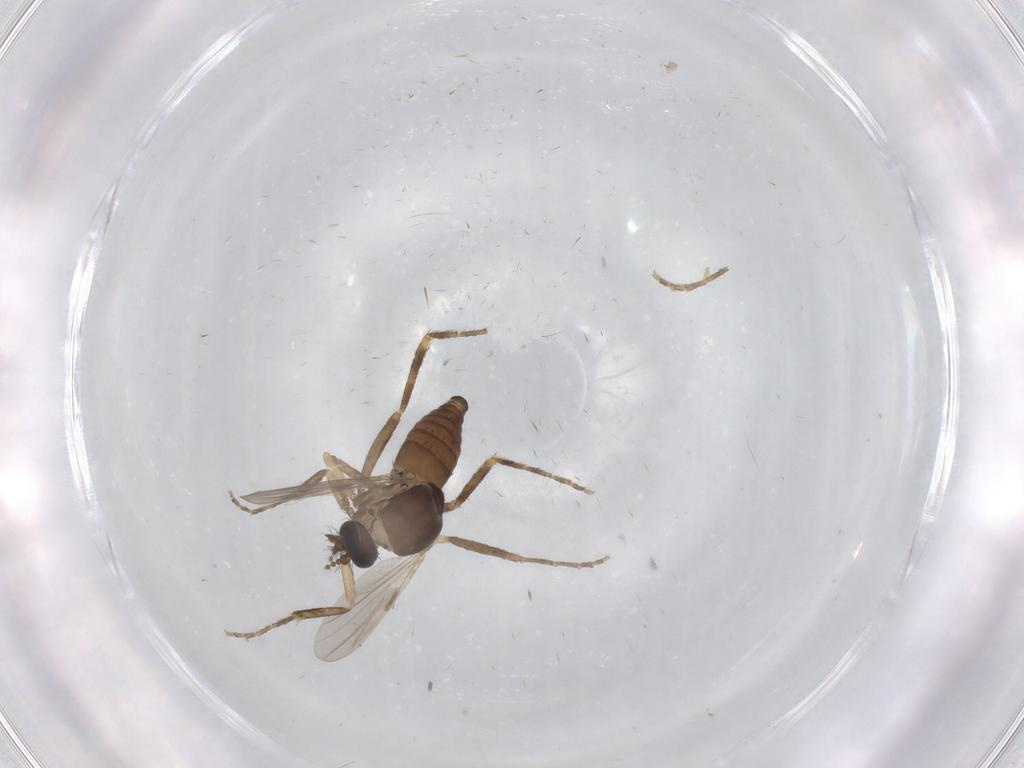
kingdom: Animalia
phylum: Arthropoda
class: Insecta
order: Diptera
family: Ceratopogonidae
